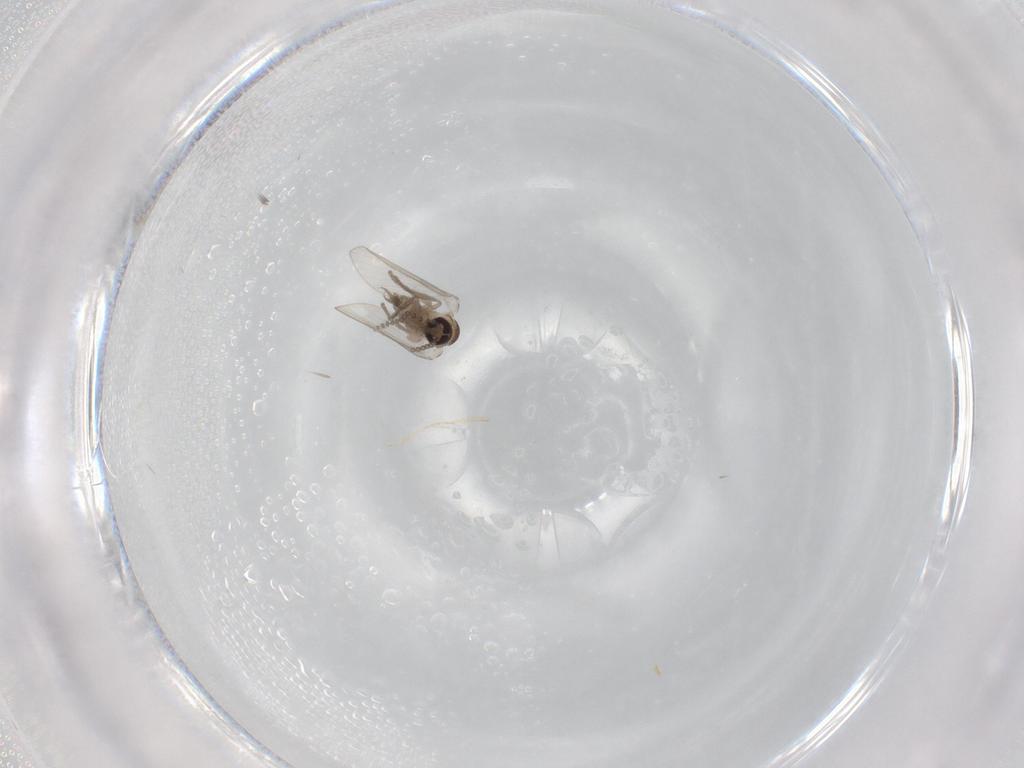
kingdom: Animalia
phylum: Arthropoda
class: Insecta
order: Diptera
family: Psychodidae
